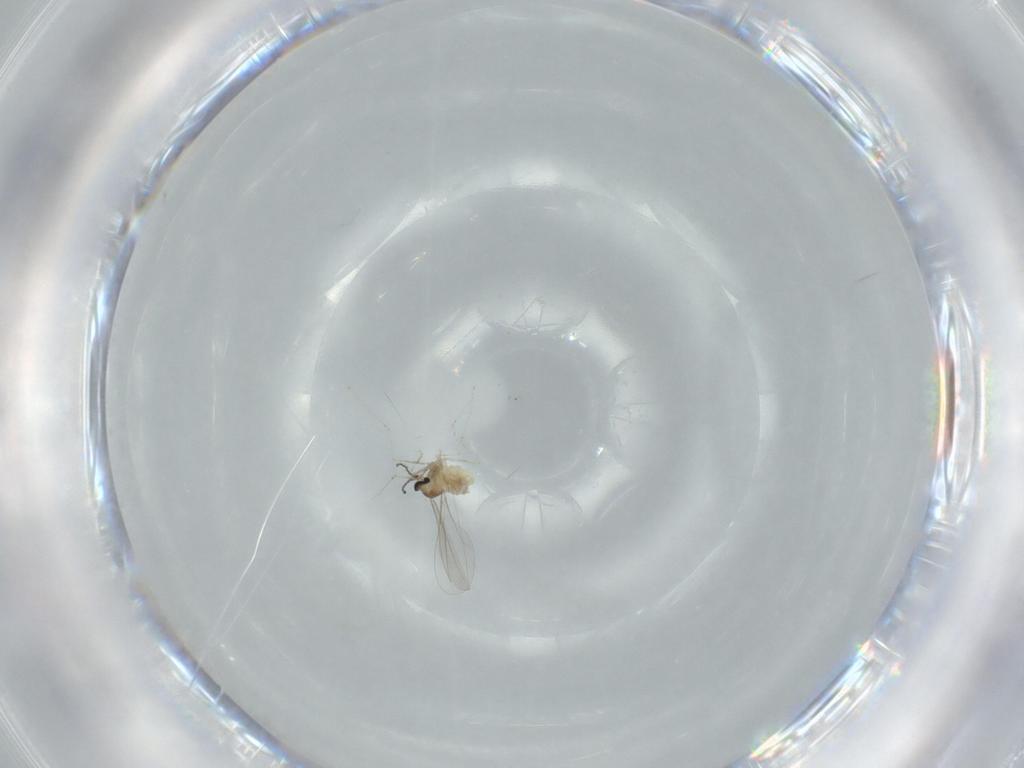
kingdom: Animalia
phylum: Arthropoda
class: Insecta
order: Diptera
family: Cecidomyiidae
